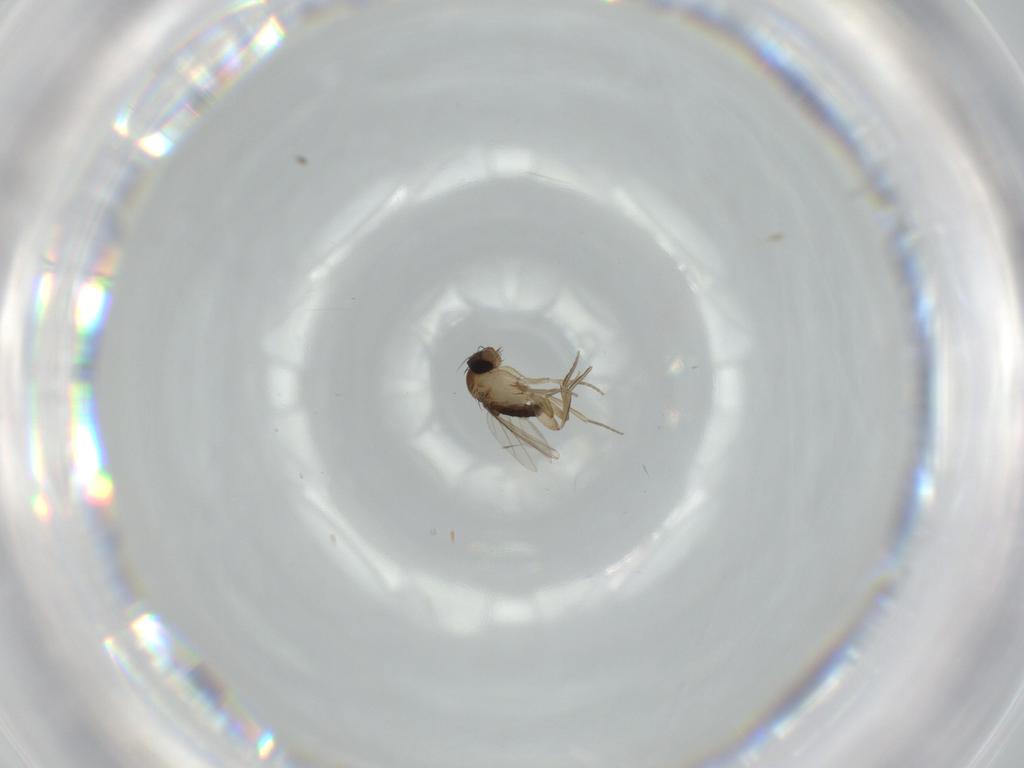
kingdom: Animalia
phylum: Arthropoda
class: Insecta
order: Diptera
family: Phoridae
